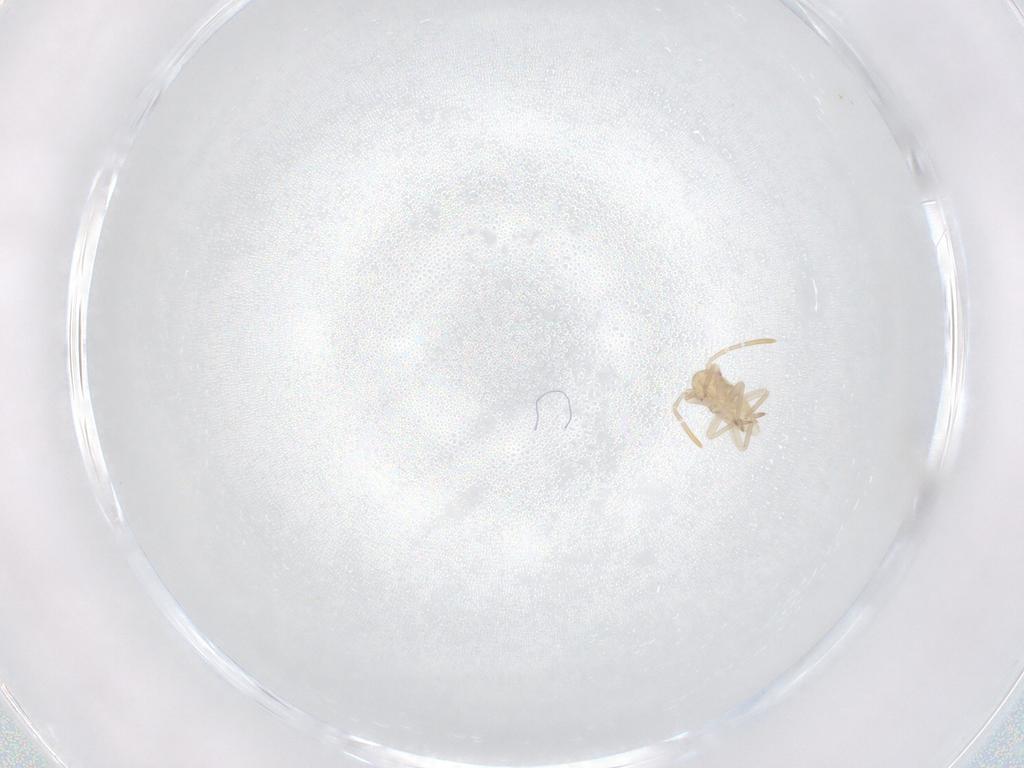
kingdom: Animalia
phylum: Arthropoda
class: Insecta
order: Hemiptera
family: Miridae
